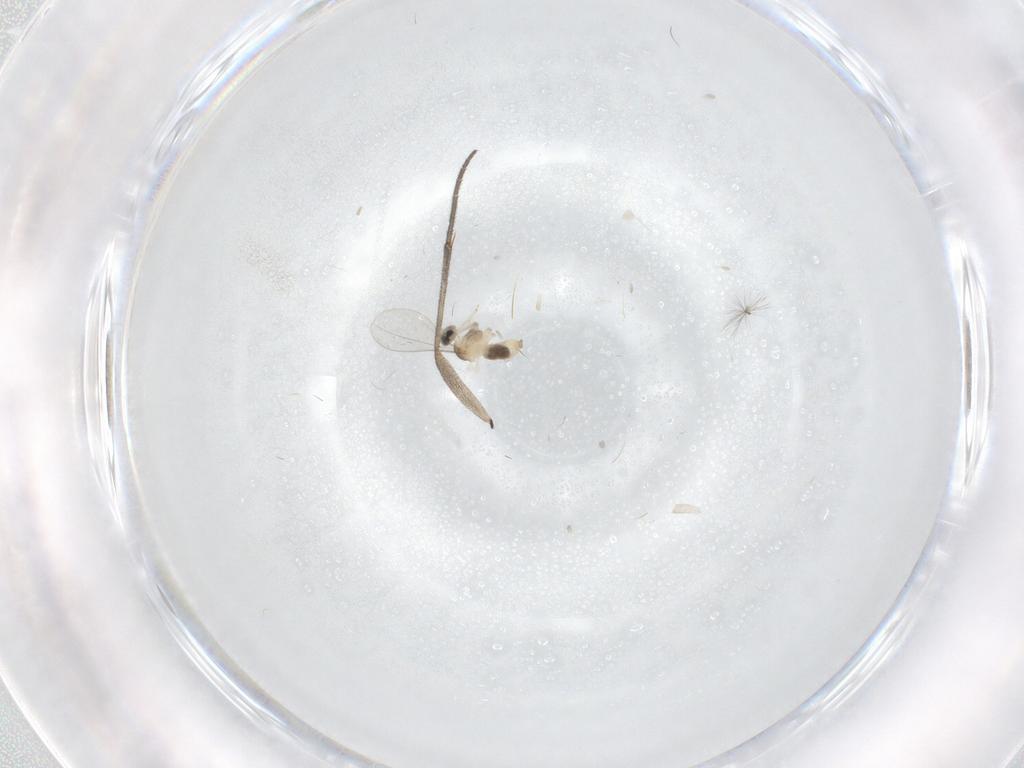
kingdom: Animalia
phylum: Arthropoda
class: Insecta
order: Diptera
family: Cecidomyiidae
